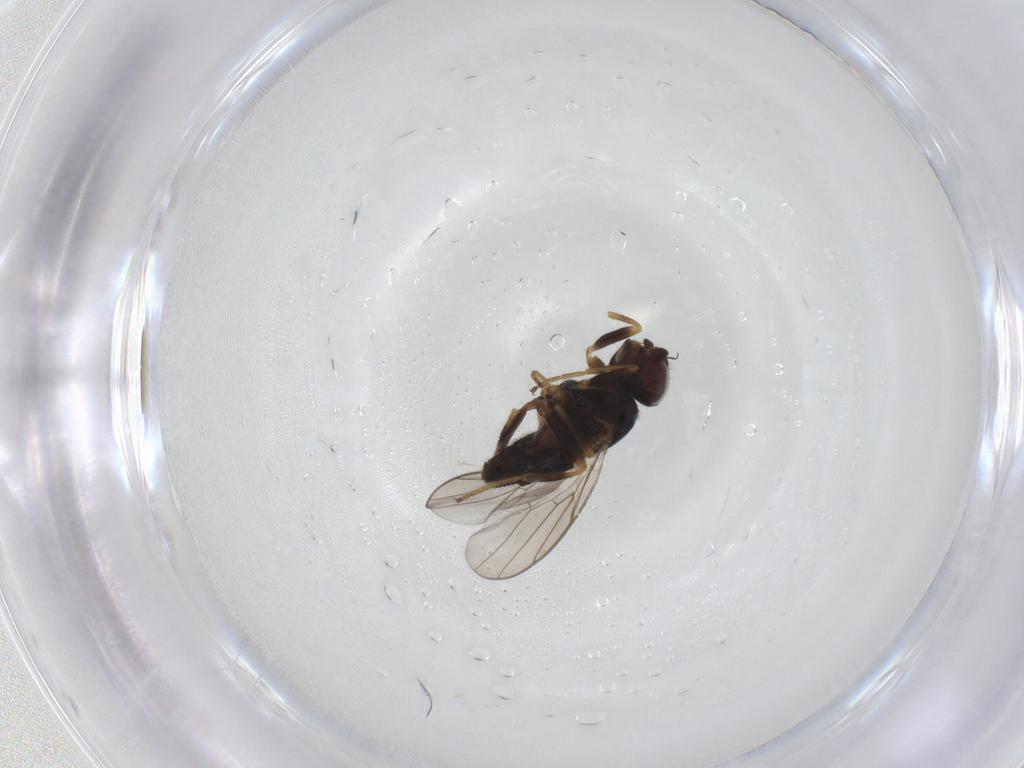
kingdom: Animalia
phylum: Arthropoda
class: Insecta
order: Diptera
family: Chloropidae
